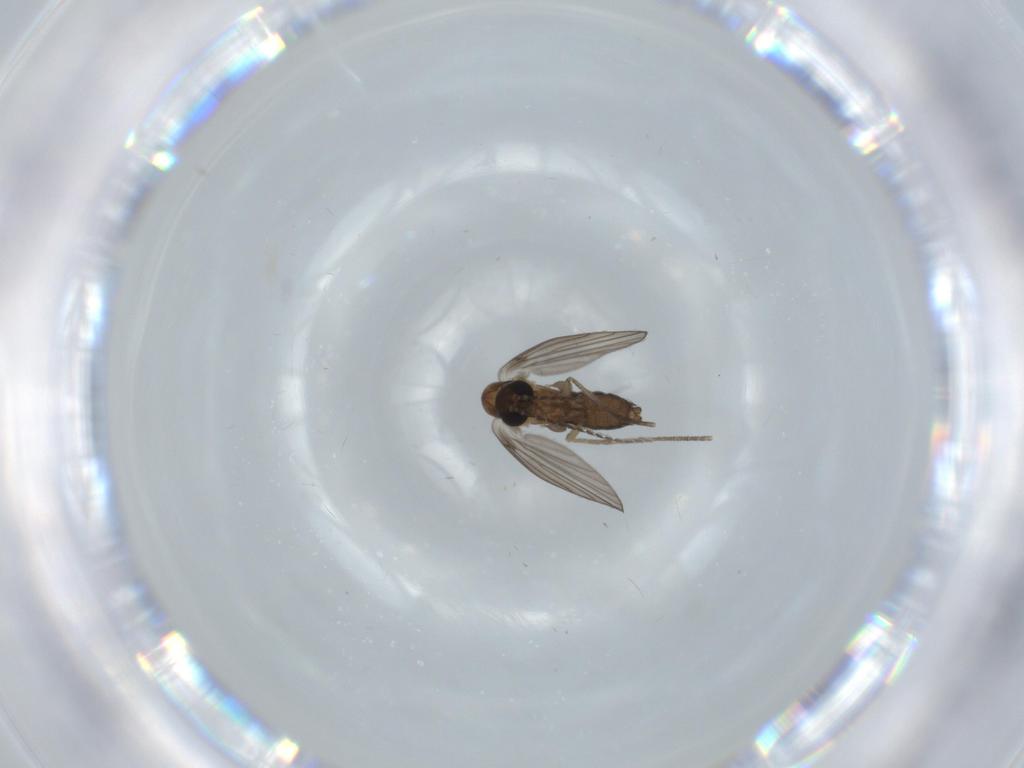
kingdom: Animalia
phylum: Arthropoda
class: Insecta
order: Diptera
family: Psychodidae
